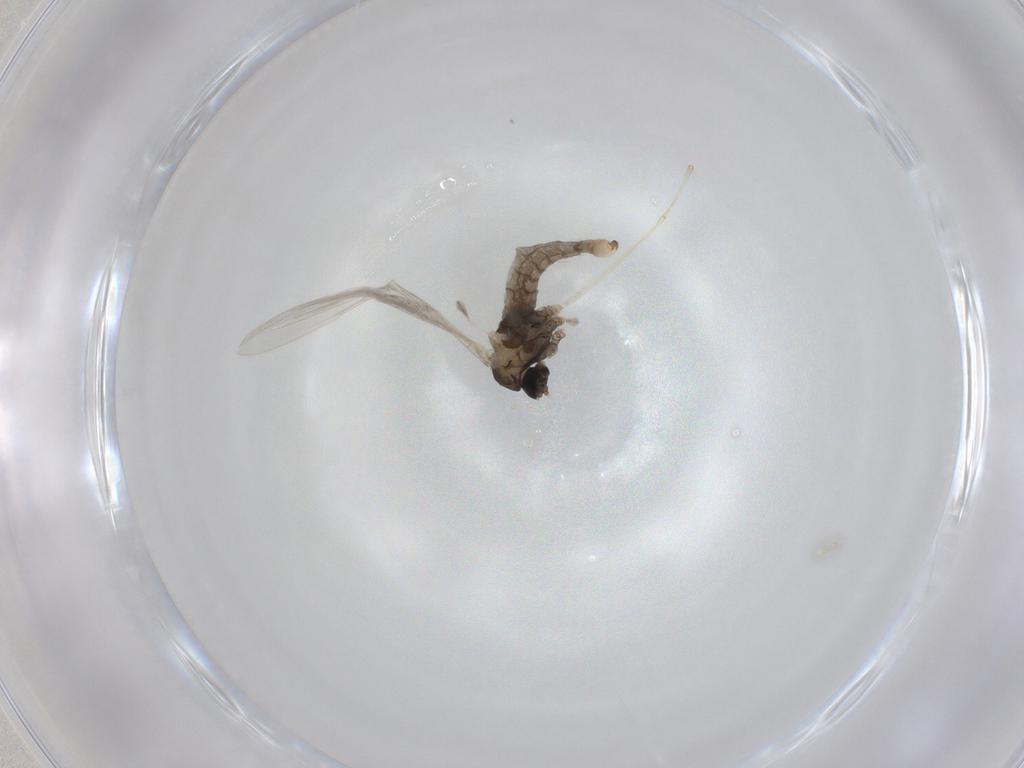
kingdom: Animalia
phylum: Arthropoda
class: Insecta
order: Diptera
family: Cecidomyiidae
